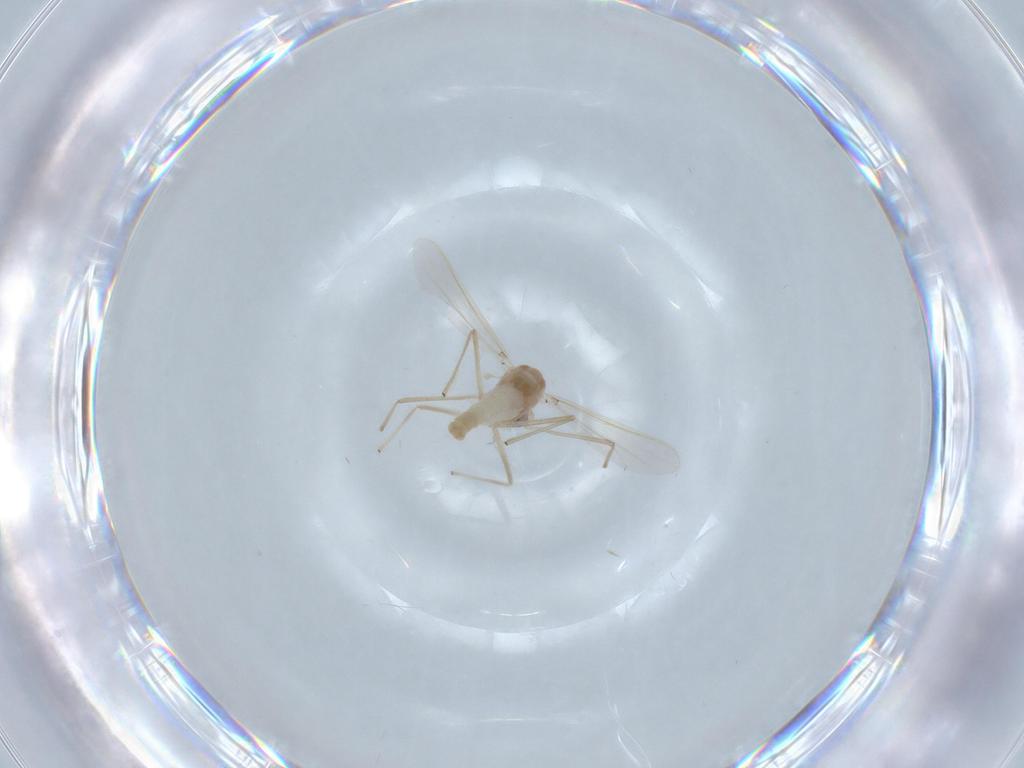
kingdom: Animalia
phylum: Arthropoda
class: Insecta
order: Diptera
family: Chironomidae
